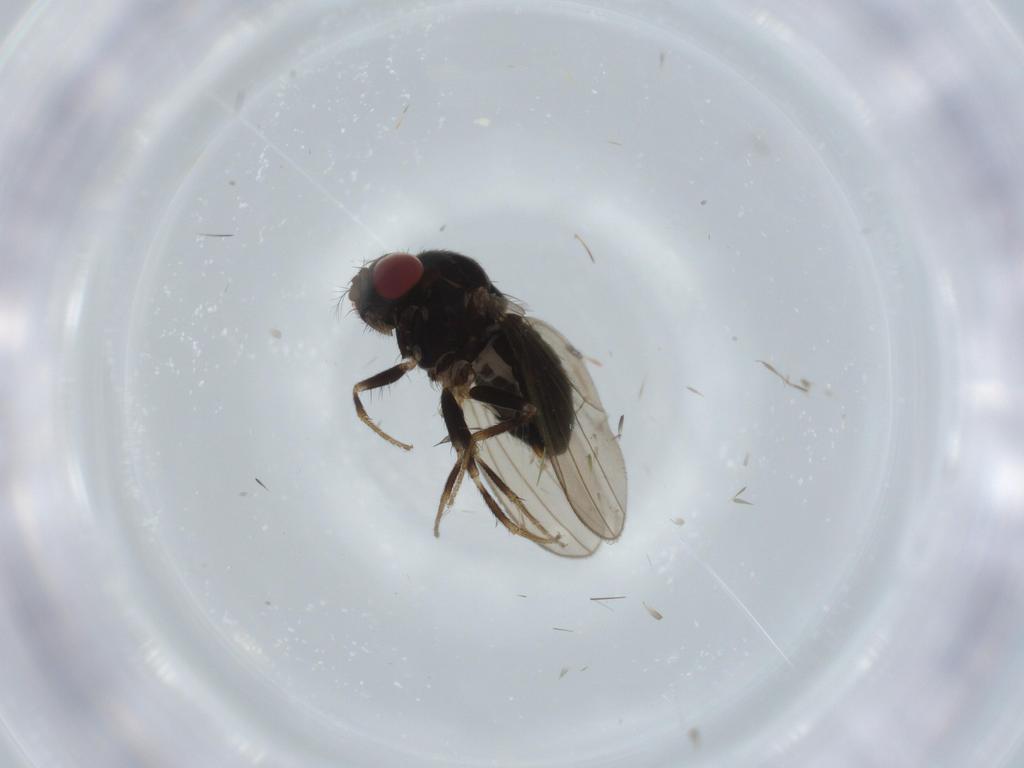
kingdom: Animalia
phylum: Arthropoda
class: Insecta
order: Diptera
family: Drosophilidae
